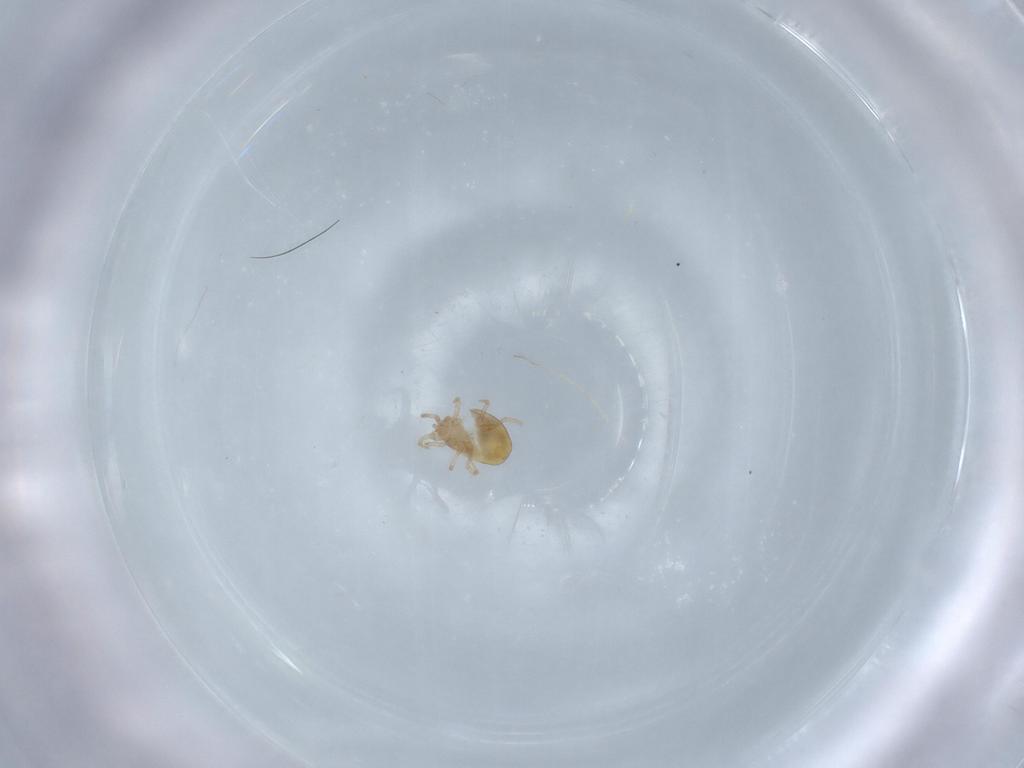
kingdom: Animalia
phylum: Arthropoda
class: Arachnida
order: Mesostigmata
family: Melicharidae
